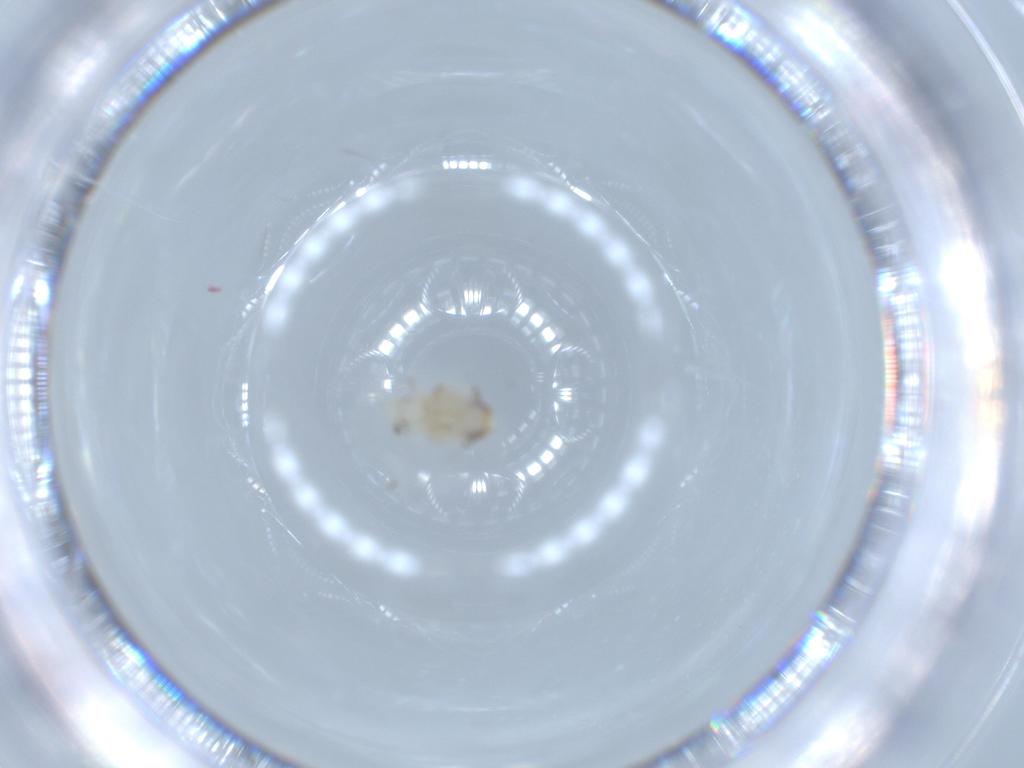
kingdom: Animalia
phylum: Arthropoda
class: Insecta
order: Hemiptera
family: Nogodinidae
